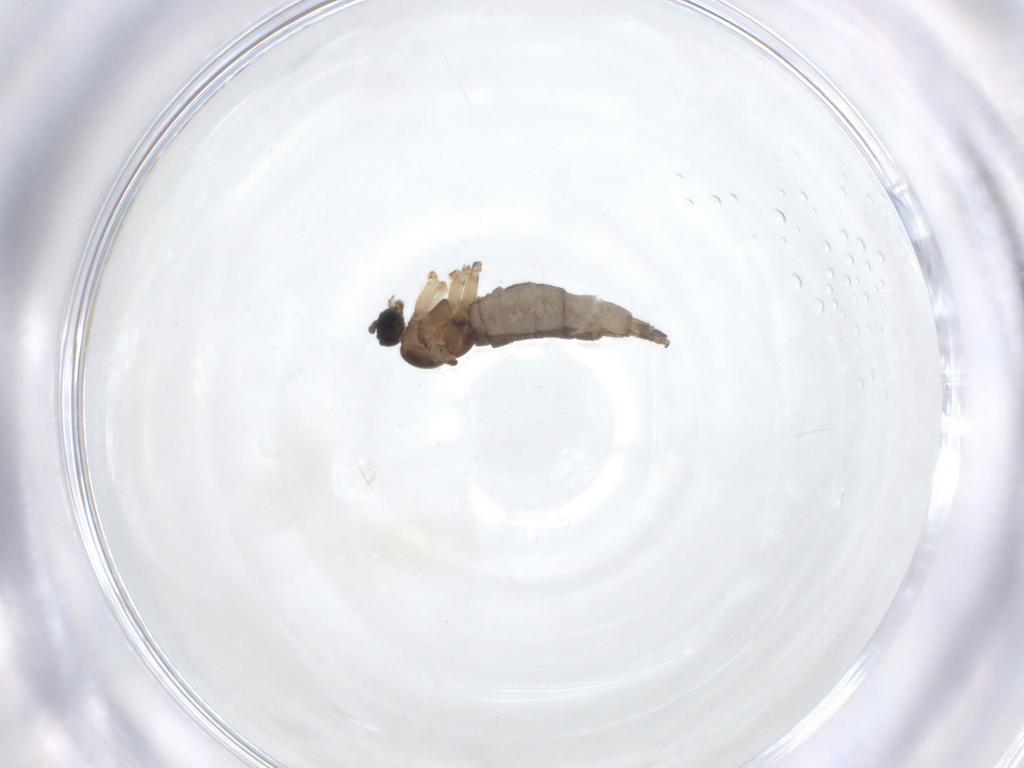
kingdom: Animalia
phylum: Arthropoda
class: Insecta
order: Diptera
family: Sciaridae
